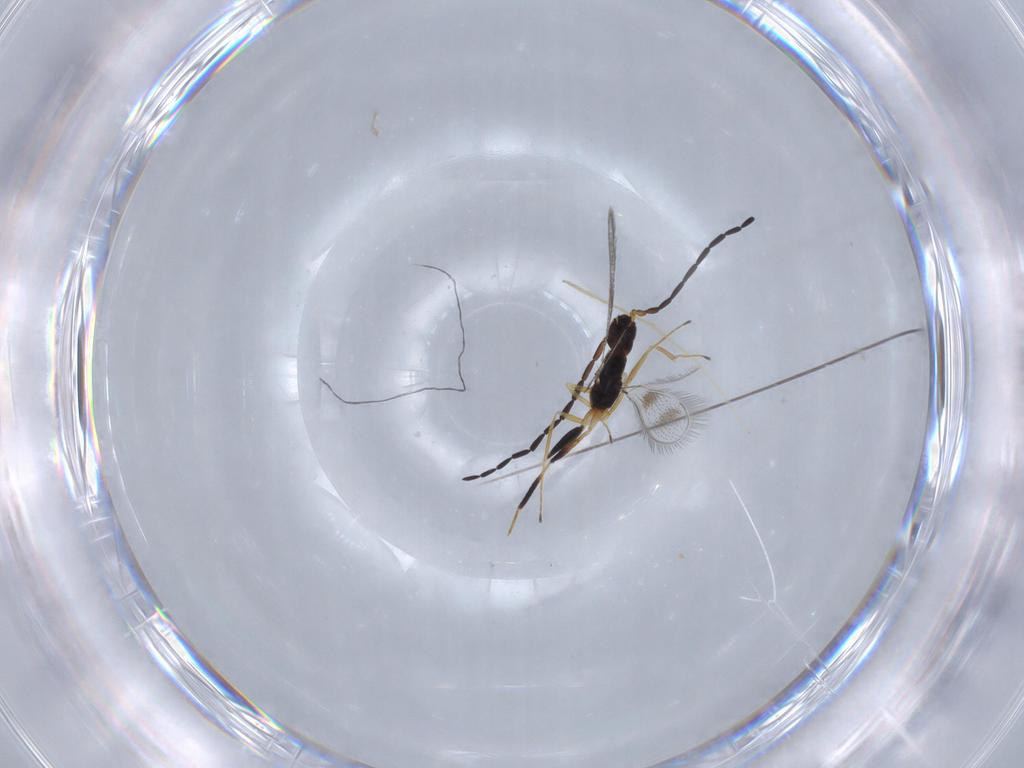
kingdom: Animalia
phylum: Arthropoda
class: Insecta
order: Hymenoptera
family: Mymaridae
